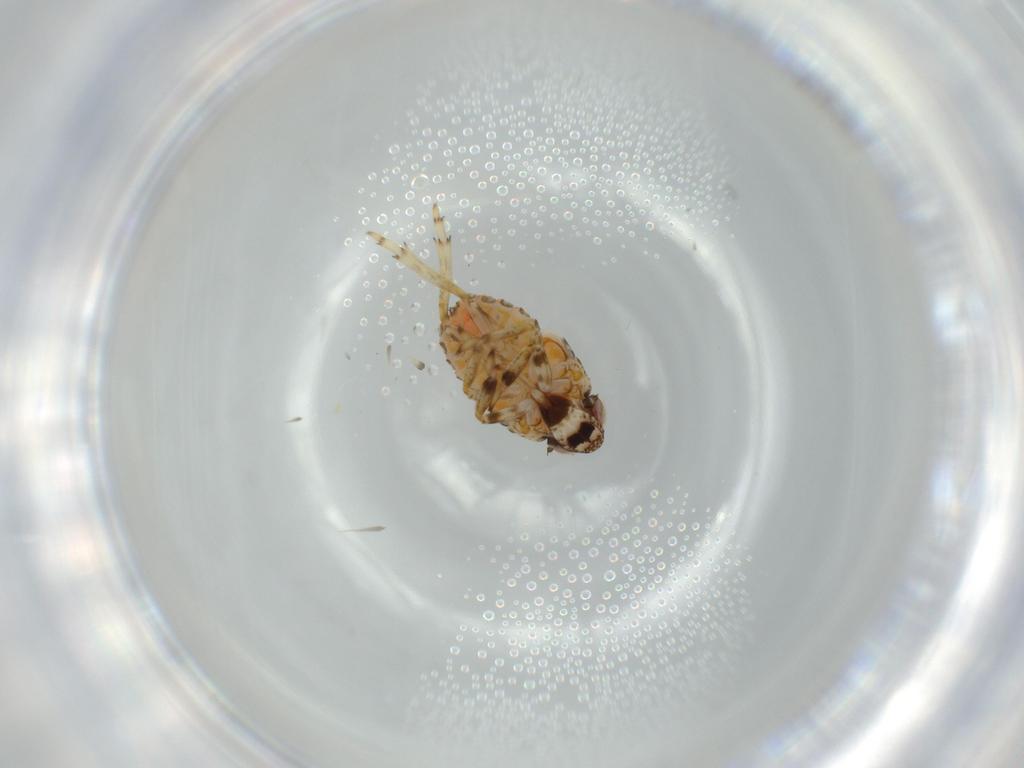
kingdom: Animalia
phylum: Arthropoda
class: Insecta
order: Hemiptera
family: Issidae
